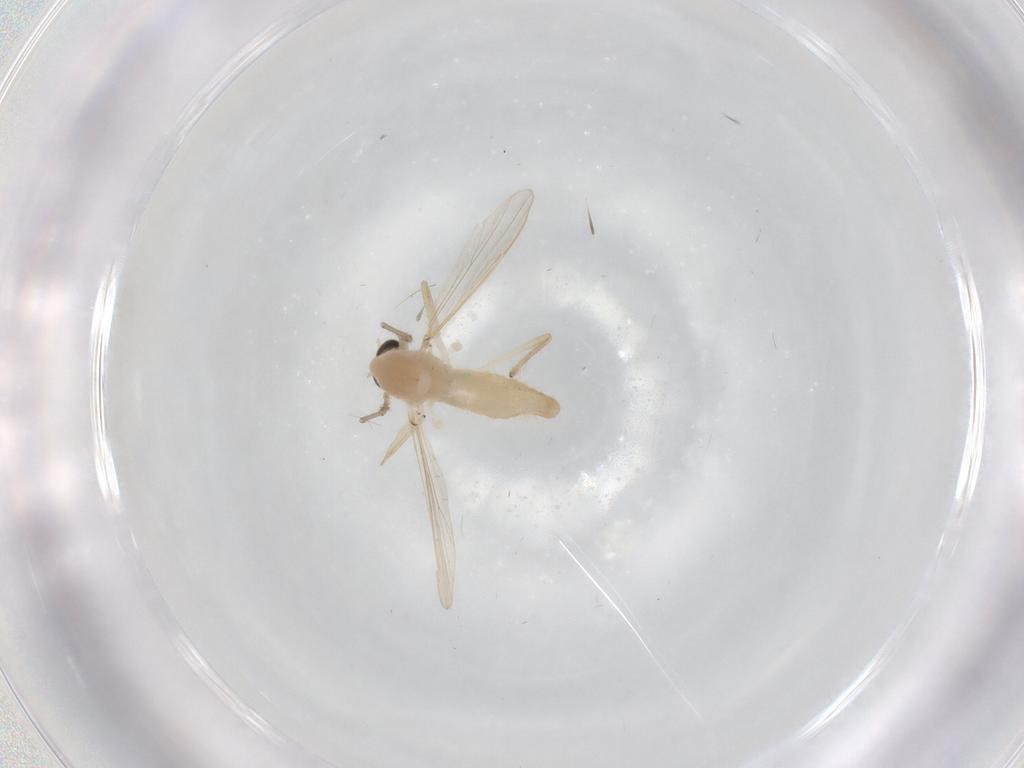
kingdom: Animalia
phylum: Arthropoda
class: Insecta
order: Diptera
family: Chironomidae
